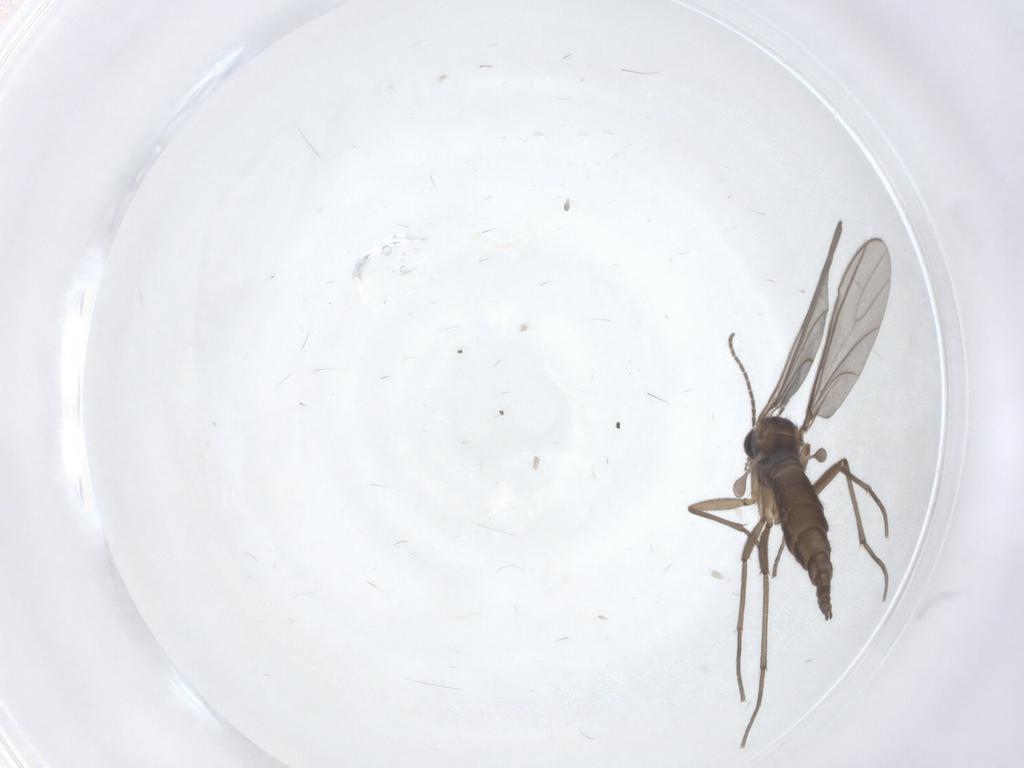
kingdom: Animalia
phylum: Arthropoda
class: Insecta
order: Diptera
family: Sciaridae
